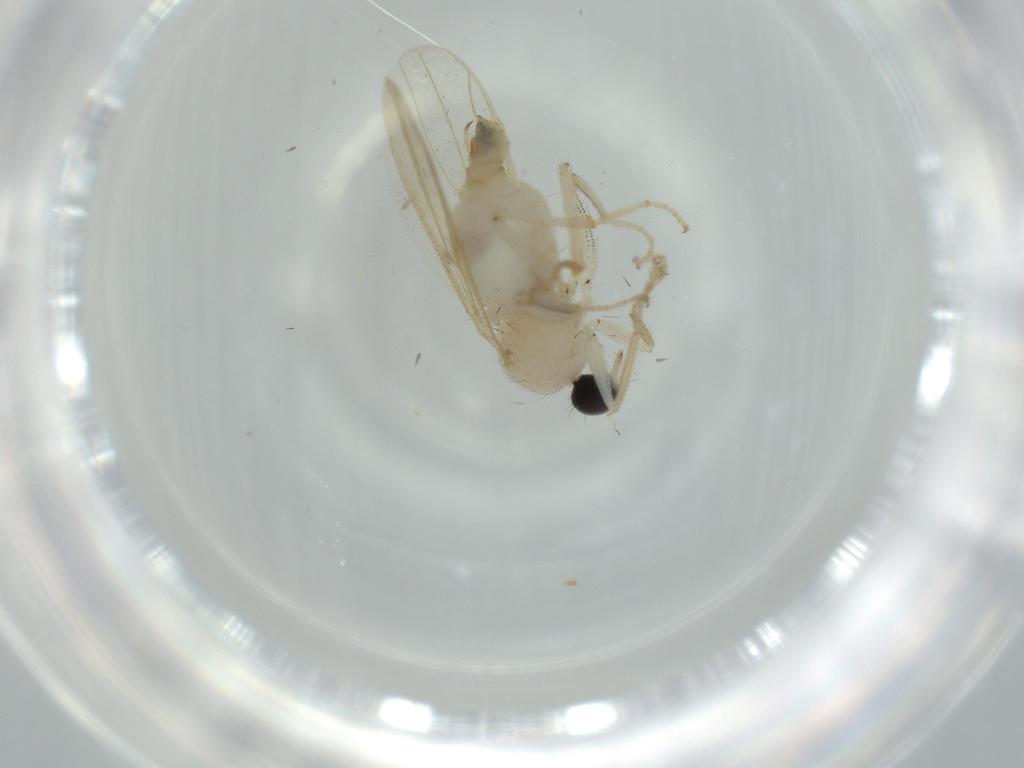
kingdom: Animalia
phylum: Arthropoda
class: Insecta
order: Diptera
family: Hybotidae
